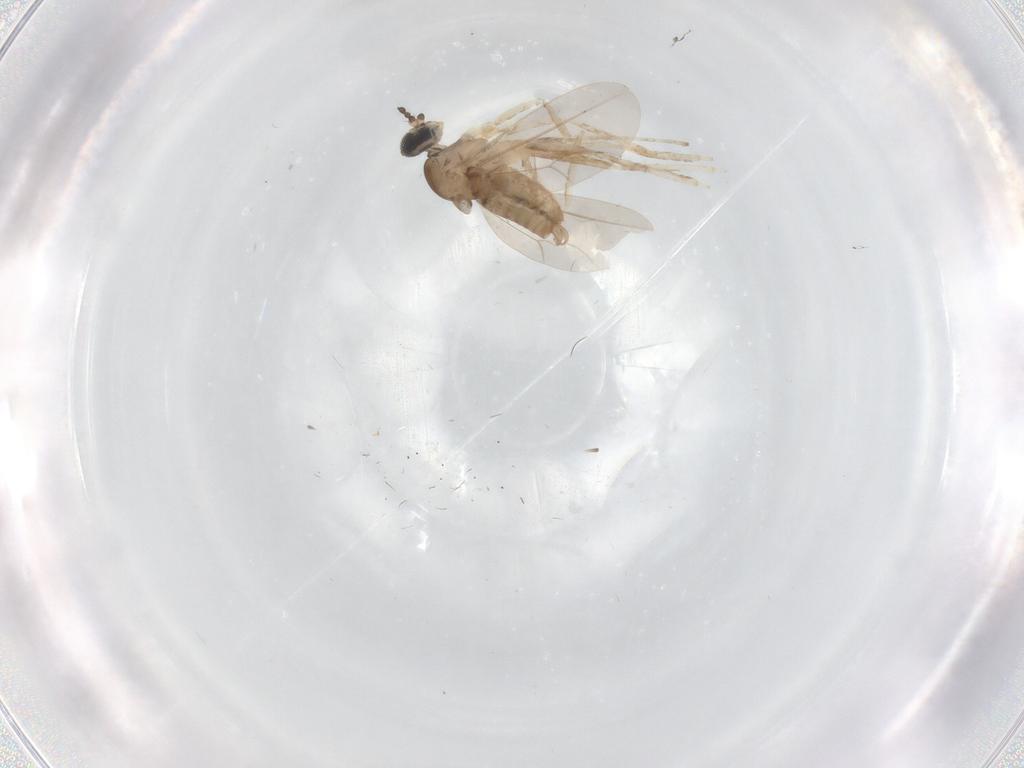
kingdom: Animalia
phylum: Arthropoda
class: Insecta
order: Diptera
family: Dolichopodidae
